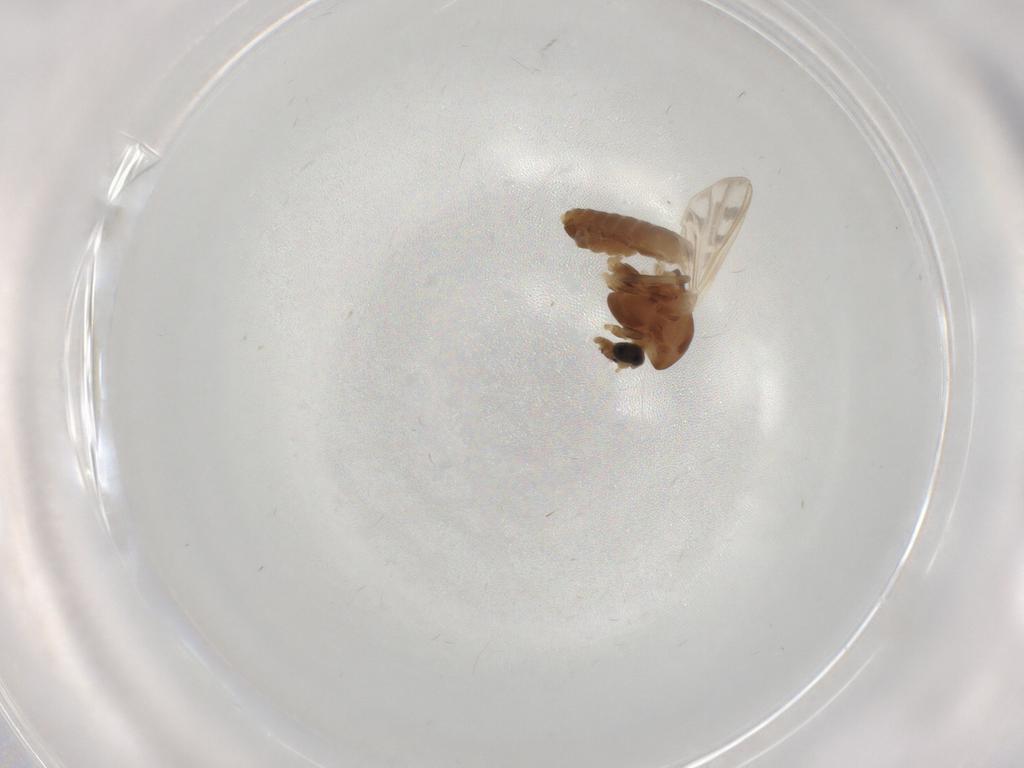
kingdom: Animalia
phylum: Arthropoda
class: Insecta
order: Diptera
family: Chironomidae
